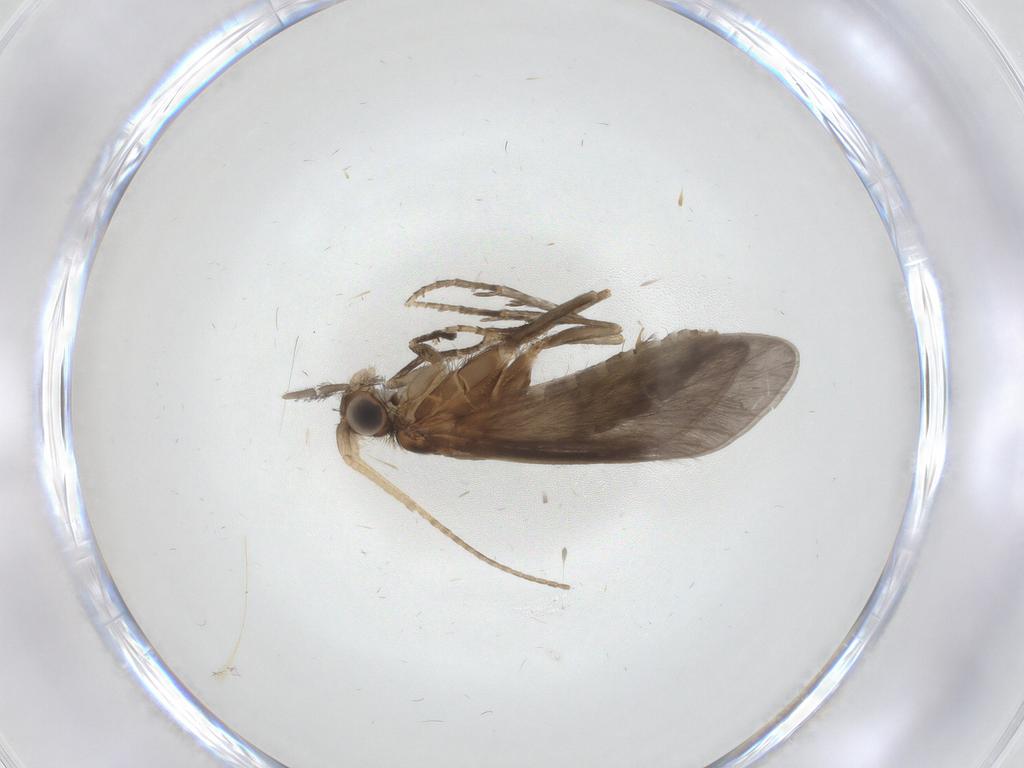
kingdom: Animalia
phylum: Arthropoda
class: Insecta
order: Trichoptera
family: Helicopsychidae
